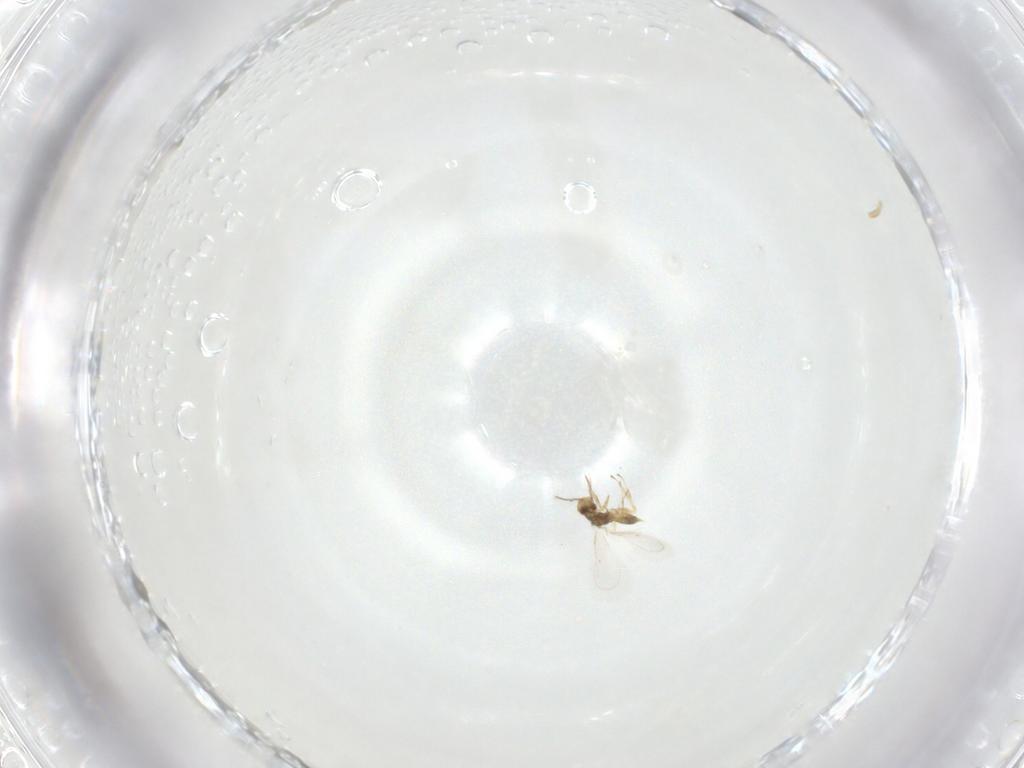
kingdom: Animalia
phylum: Arthropoda
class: Insecta
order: Hymenoptera
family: Eulophidae
